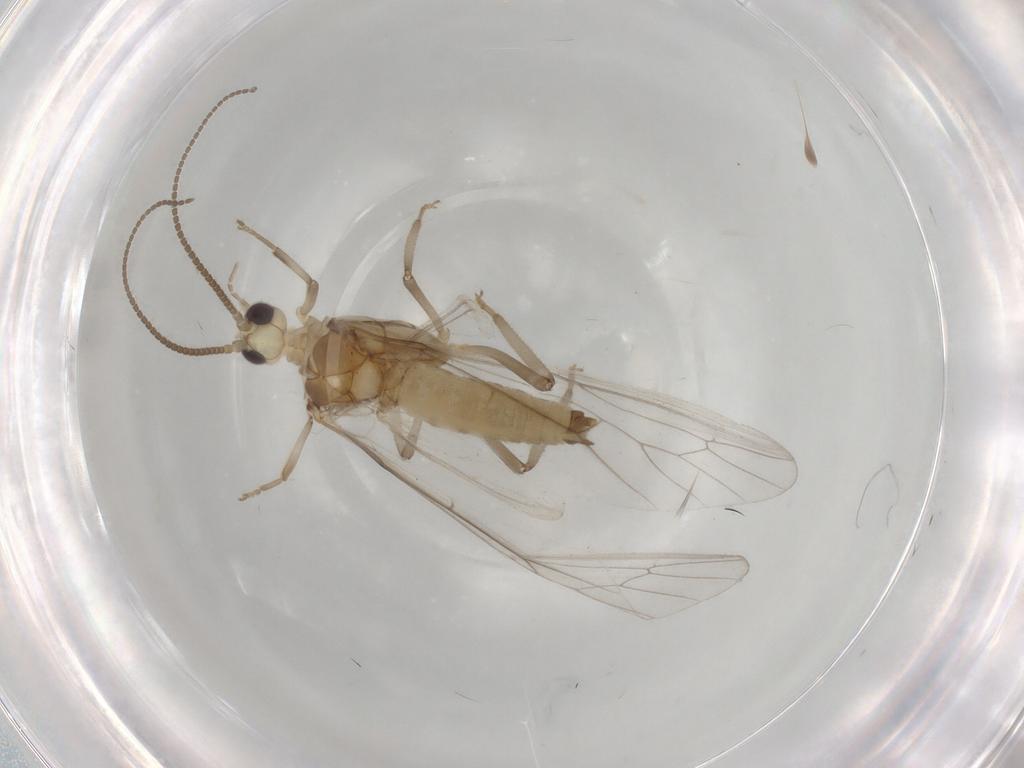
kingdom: Animalia
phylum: Arthropoda
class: Insecta
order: Neuroptera
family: Coniopterygidae
